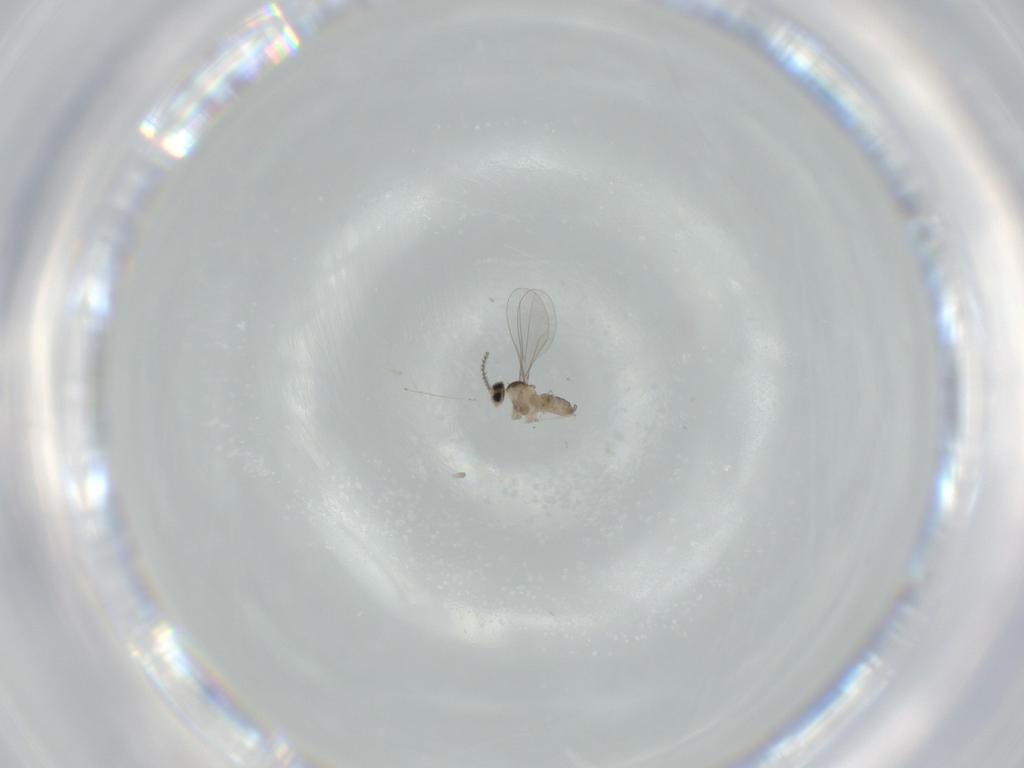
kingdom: Animalia
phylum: Arthropoda
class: Insecta
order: Diptera
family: Cecidomyiidae
